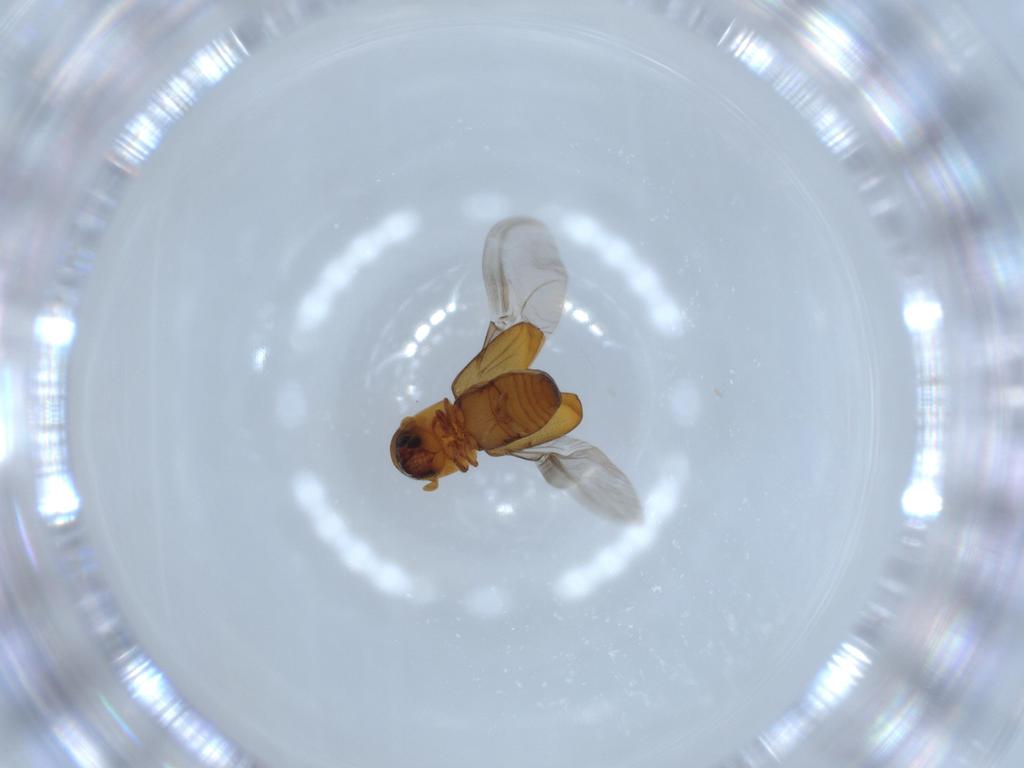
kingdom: Animalia
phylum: Arthropoda
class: Insecta
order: Coleoptera
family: Curculionidae
